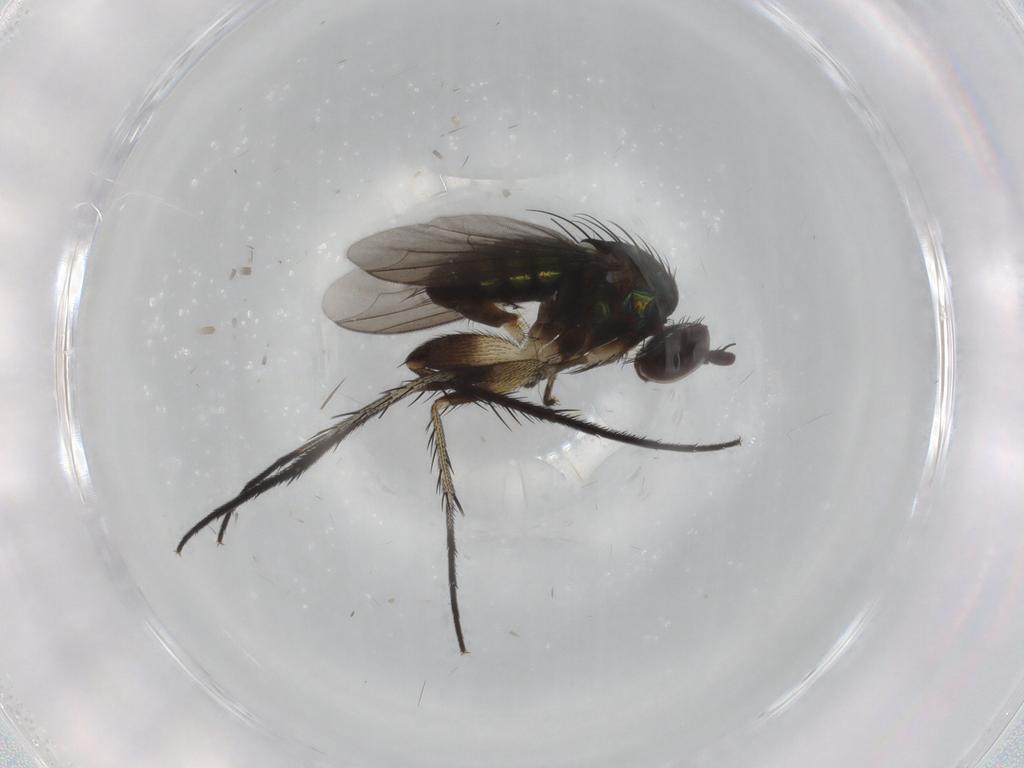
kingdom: Animalia
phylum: Arthropoda
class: Insecta
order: Diptera
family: Dolichopodidae
